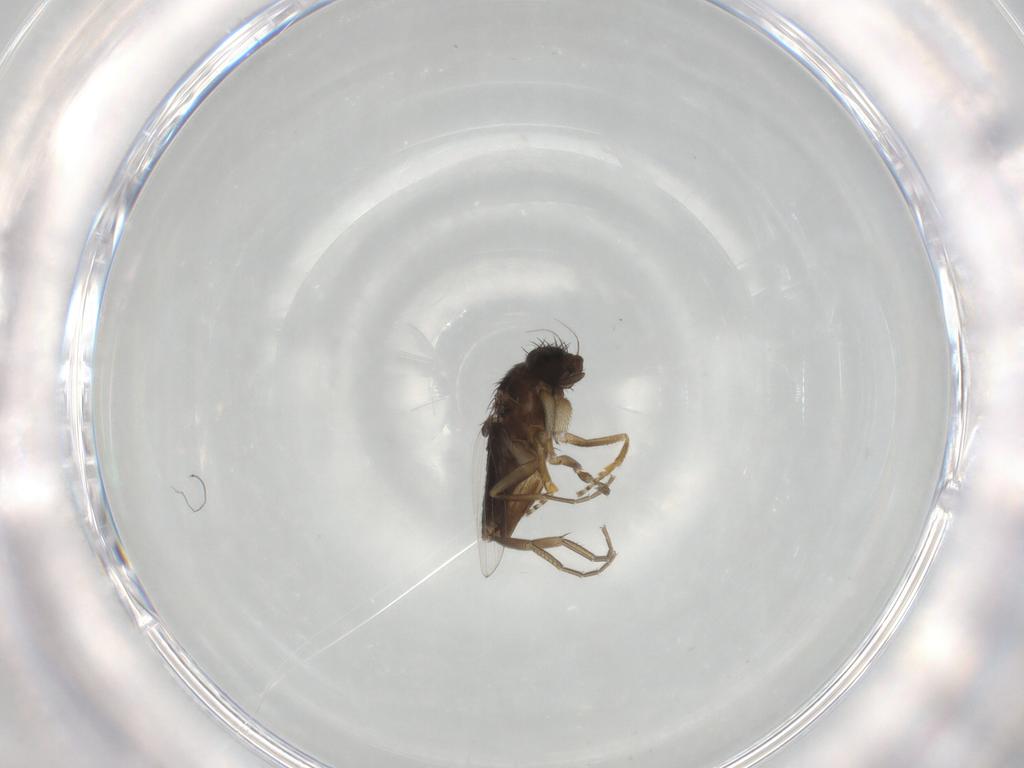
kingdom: Animalia
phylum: Arthropoda
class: Insecta
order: Diptera
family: Phoridae
